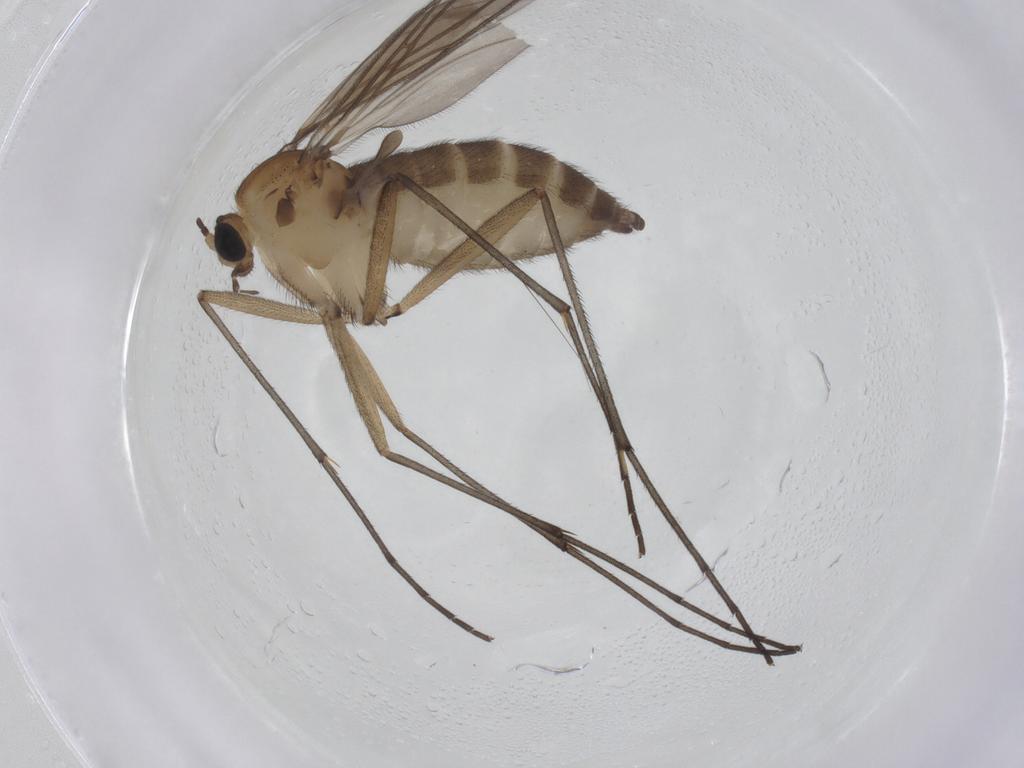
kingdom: Animalia
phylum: Arthropoda
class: Insecta
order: Diptera
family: Sciaridae
